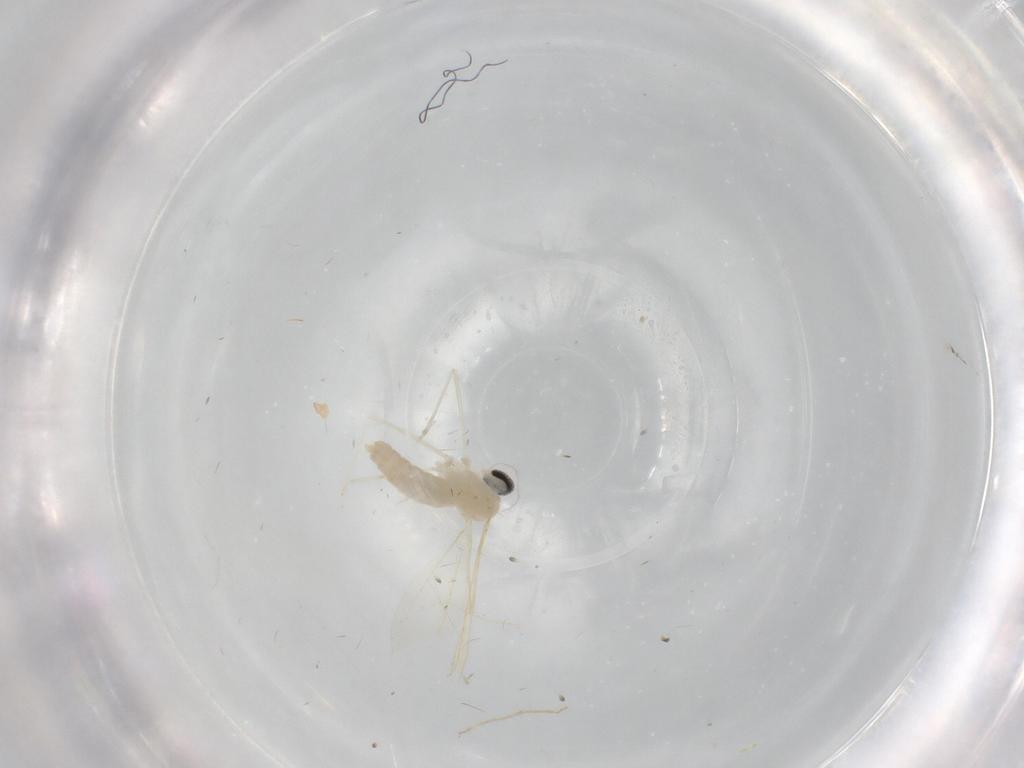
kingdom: Animalia
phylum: Arthropoda
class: Insecta
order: Diptera
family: Cecidomyiidae
